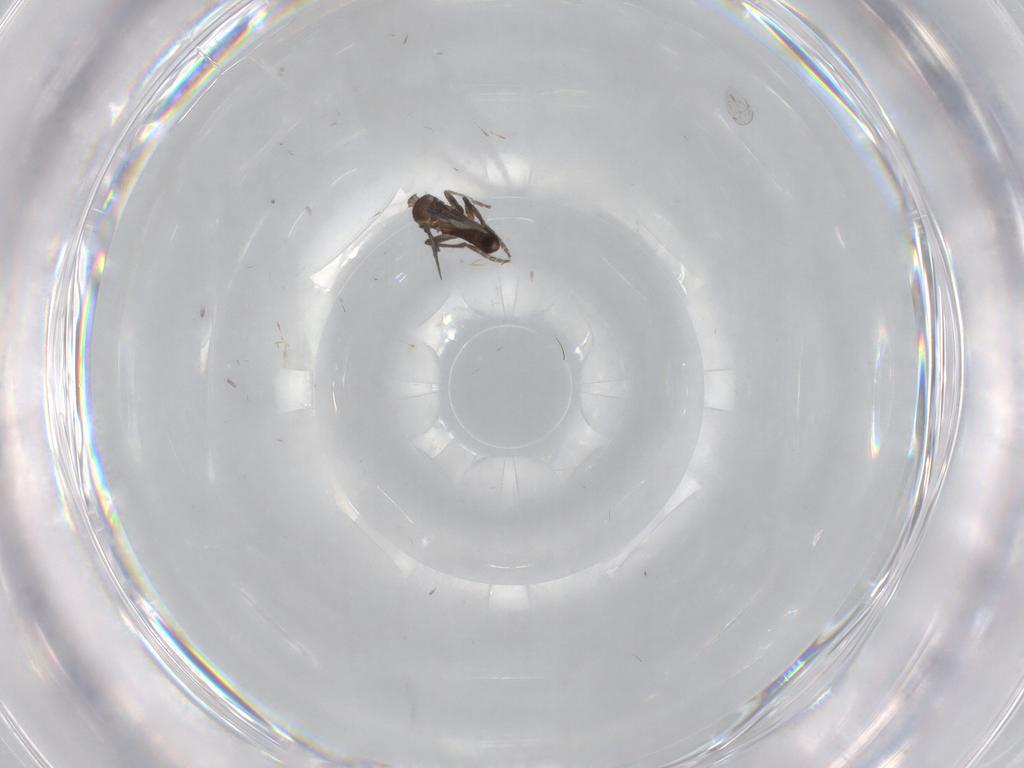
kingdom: Animalia
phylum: Arthropoda
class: Insecta
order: Diptera
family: Phoridae
